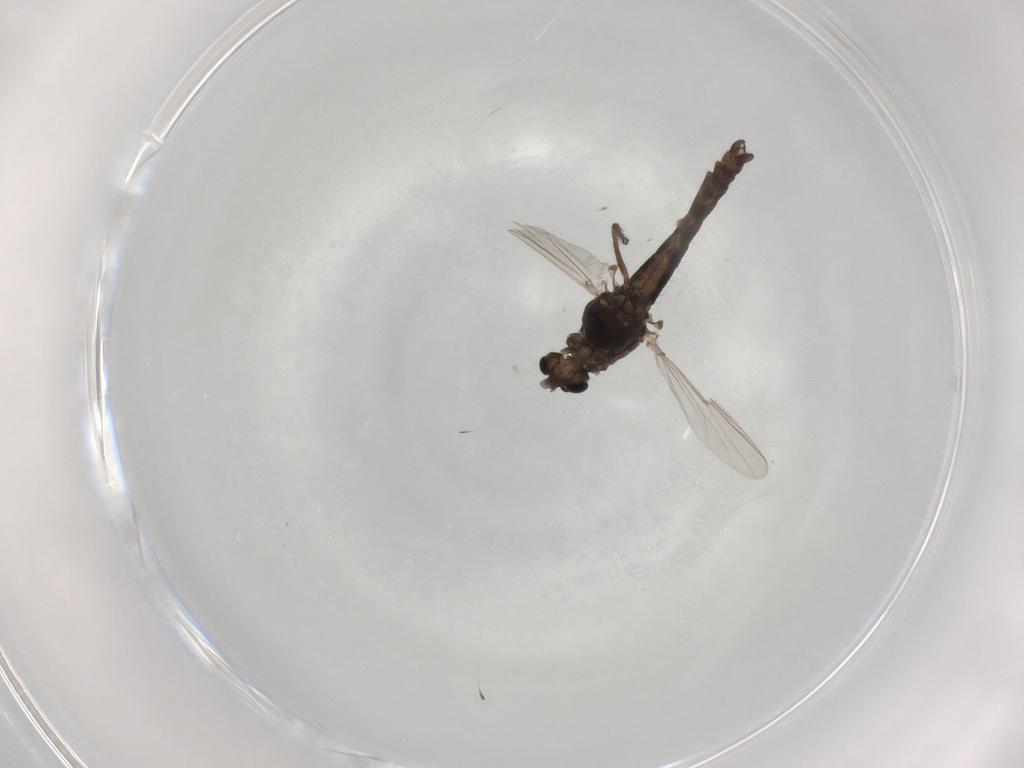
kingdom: Animalia
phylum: Arthropoda
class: Insecta
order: Diptera
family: Chironomidae
